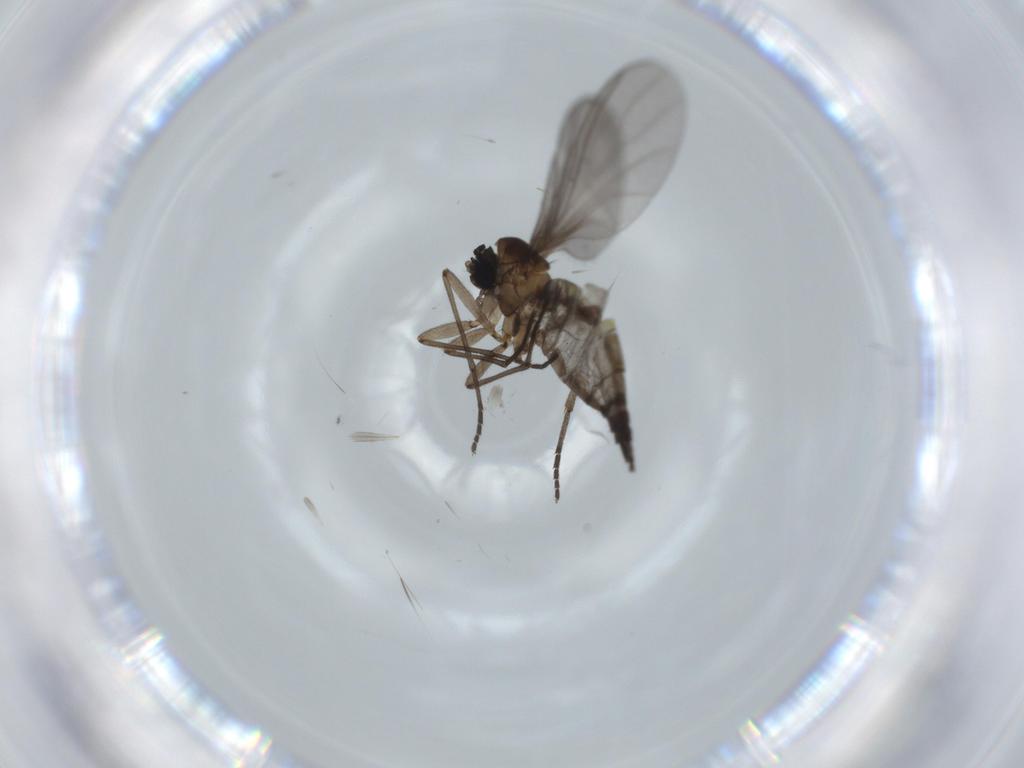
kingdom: Animalia
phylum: Arthropoda
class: Insecta
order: Diptera
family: Sciaridae
